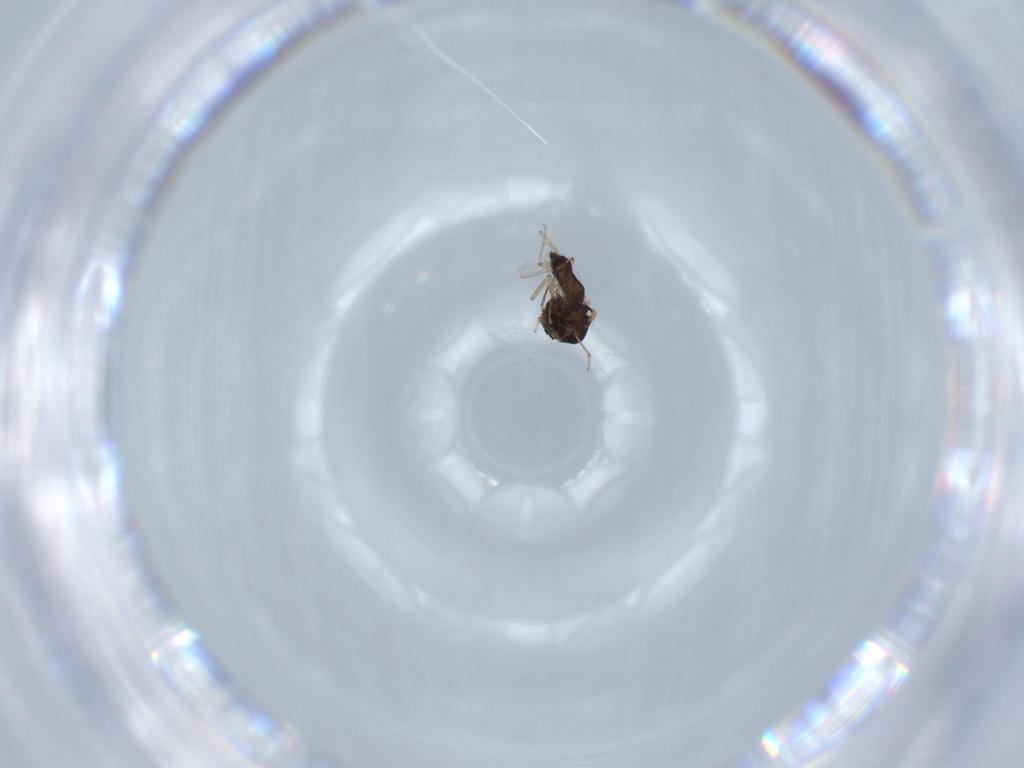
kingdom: Animalia
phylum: Arthropoda
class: Insecta
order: Diptera
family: Ceratopogonidae
